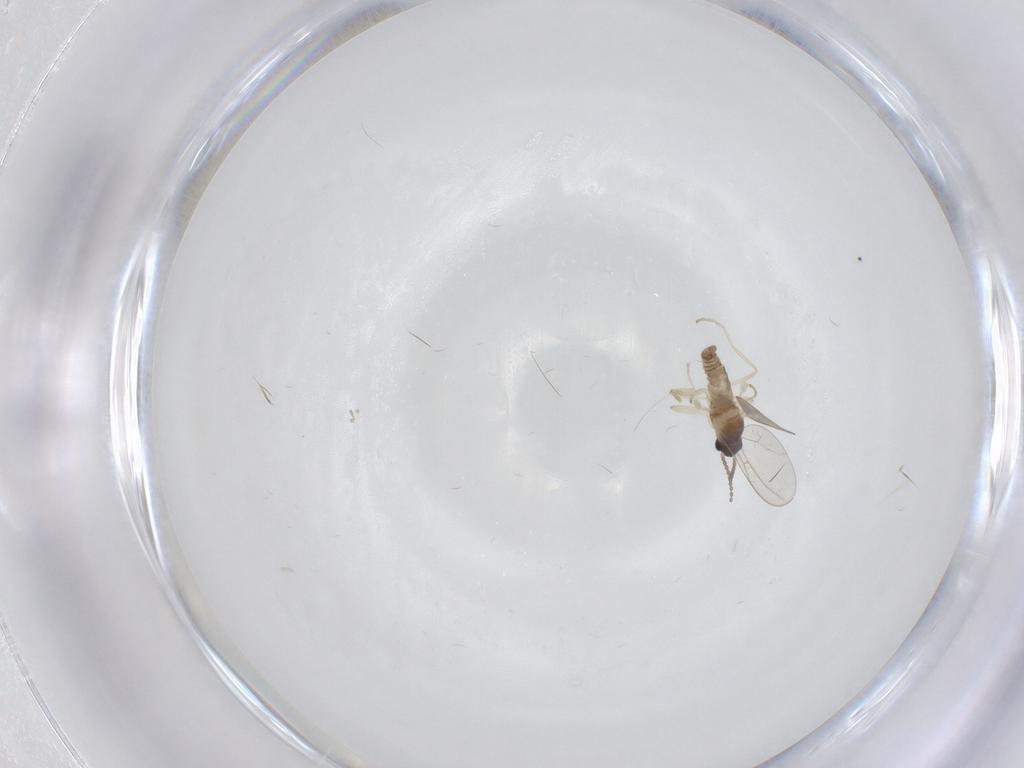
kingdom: Animalia
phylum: Arthropoda
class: Insecta
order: Diptera
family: Cecidomyiidae
